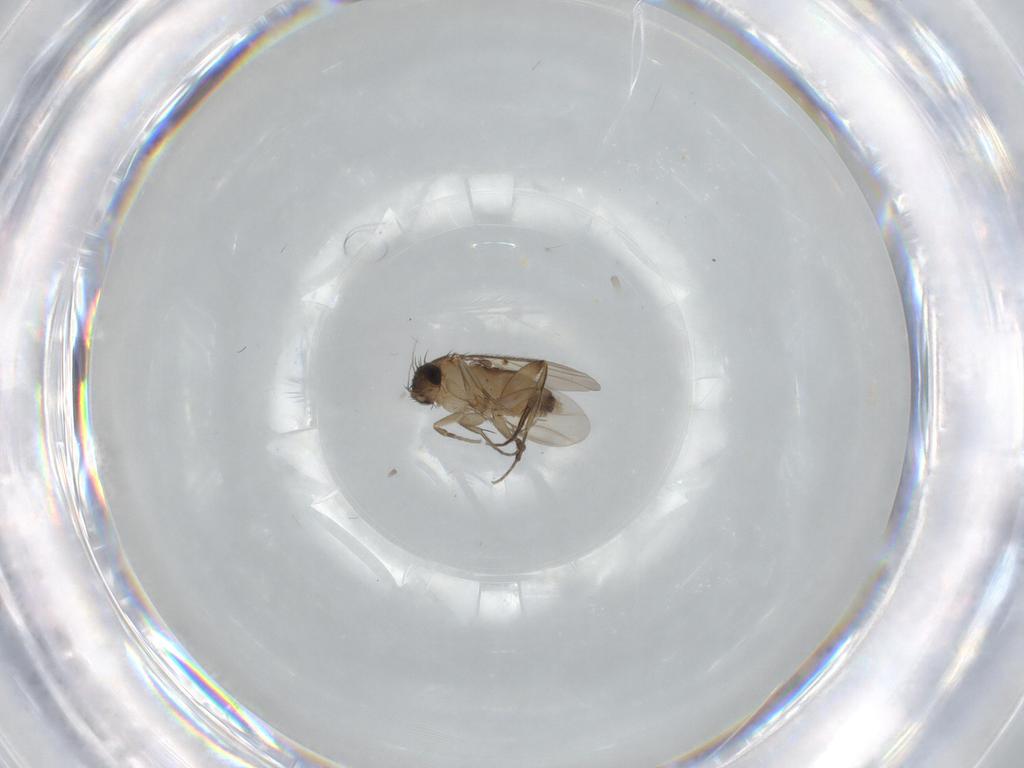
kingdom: Animalia
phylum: Arthropoda
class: Insecta
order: Diptera
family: Phoridae
